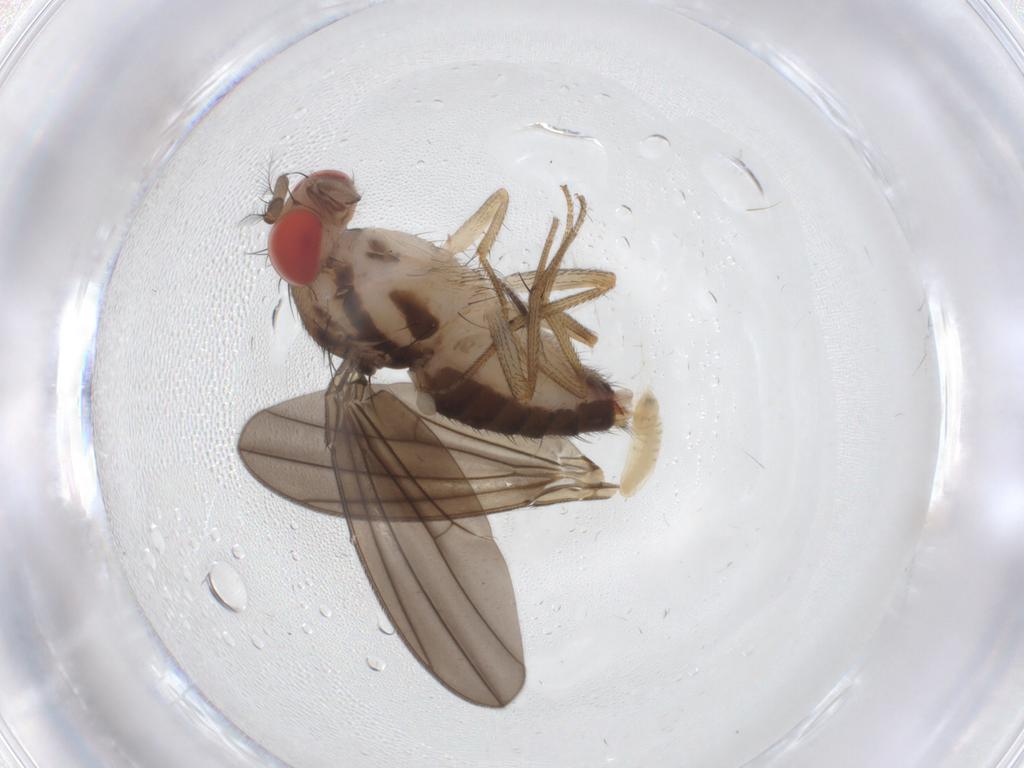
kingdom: Animalia
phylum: Arthropoda
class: Insecta
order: Diptera
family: Drosophilidae
